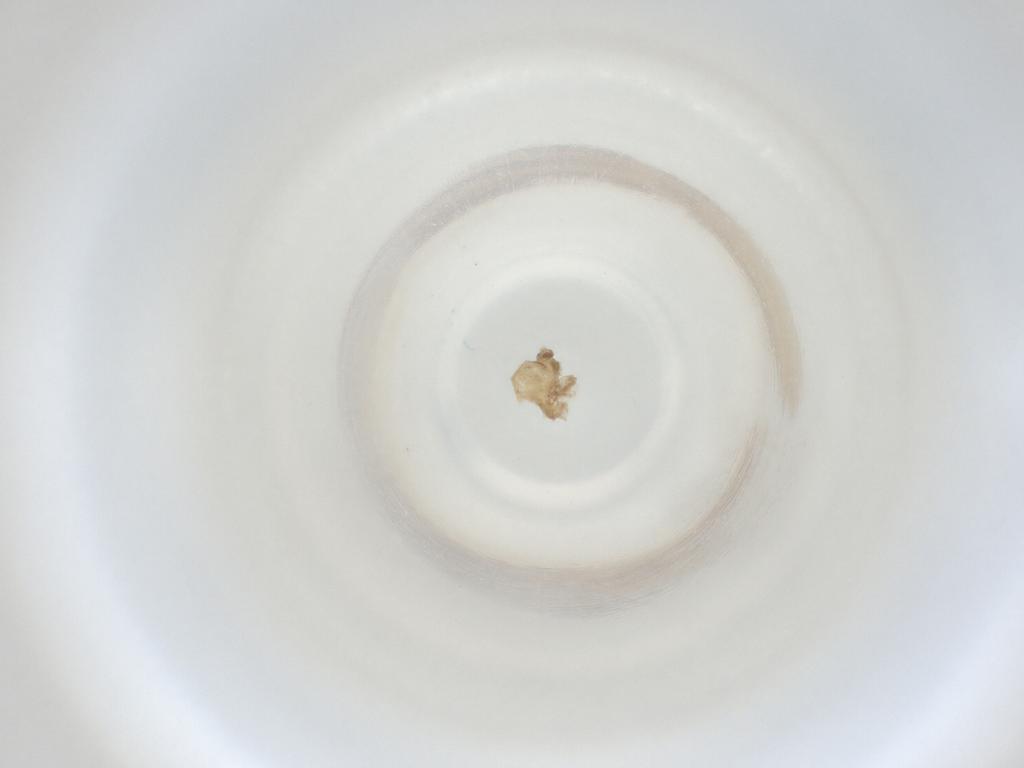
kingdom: Animalia
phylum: Arthropoda
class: Insecta
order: Diptera
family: Cecidomyiidae
